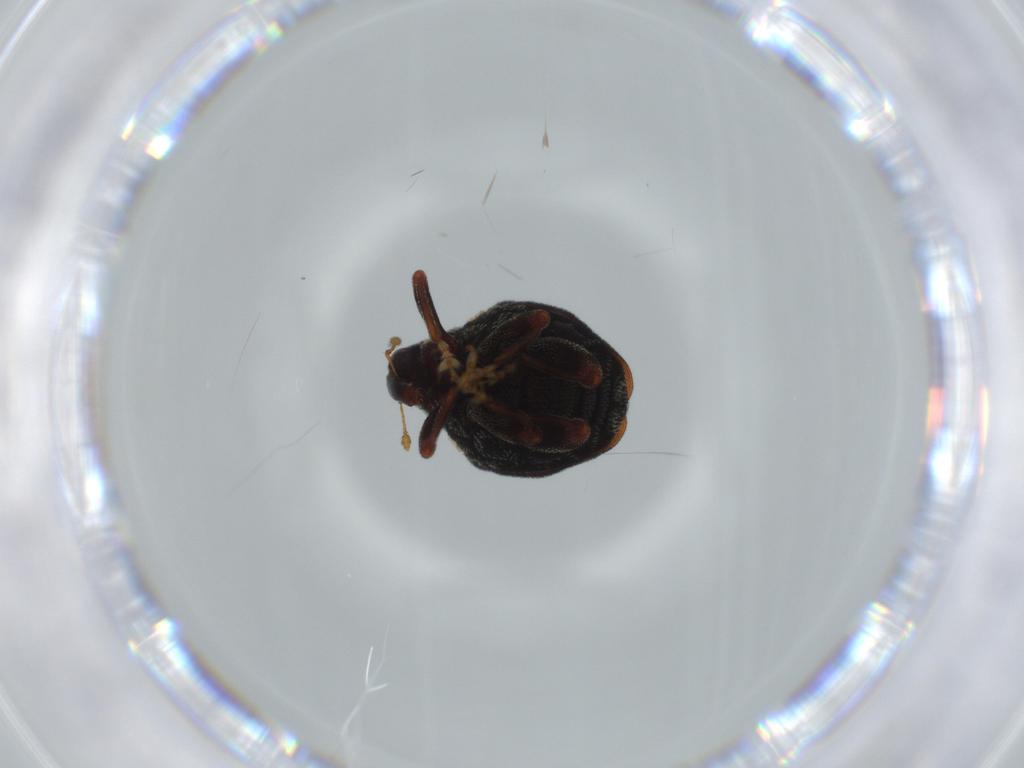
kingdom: Animalia
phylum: Arthropoda
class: Insecta
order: Coleoptera
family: Curculionidae
